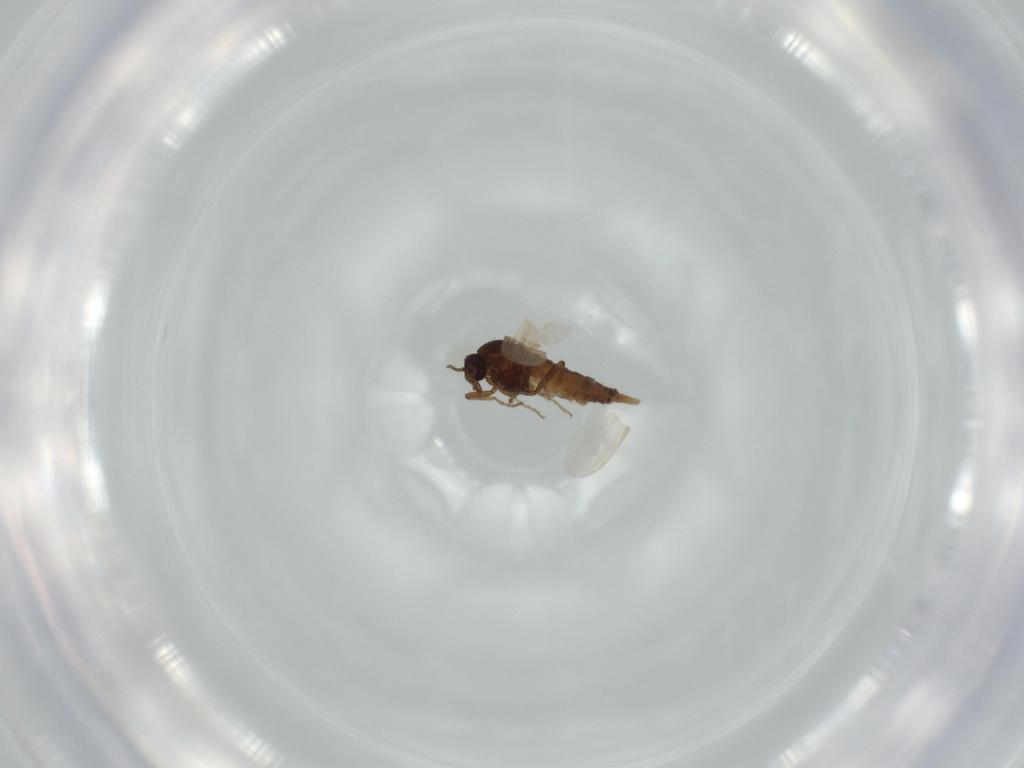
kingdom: Animalia
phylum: Arthropoda
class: Insecta
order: Diptera
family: Ceratopogonidae
